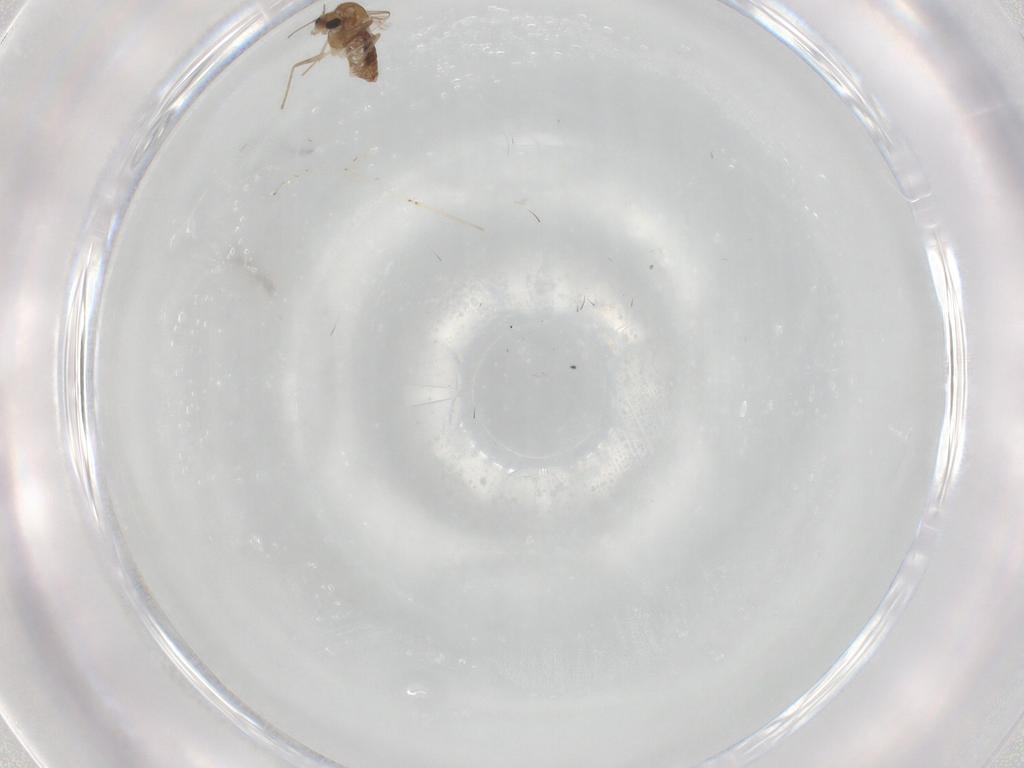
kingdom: Animalia
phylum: Arthropoda
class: Insecta
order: Diptera
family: Chironomidae
